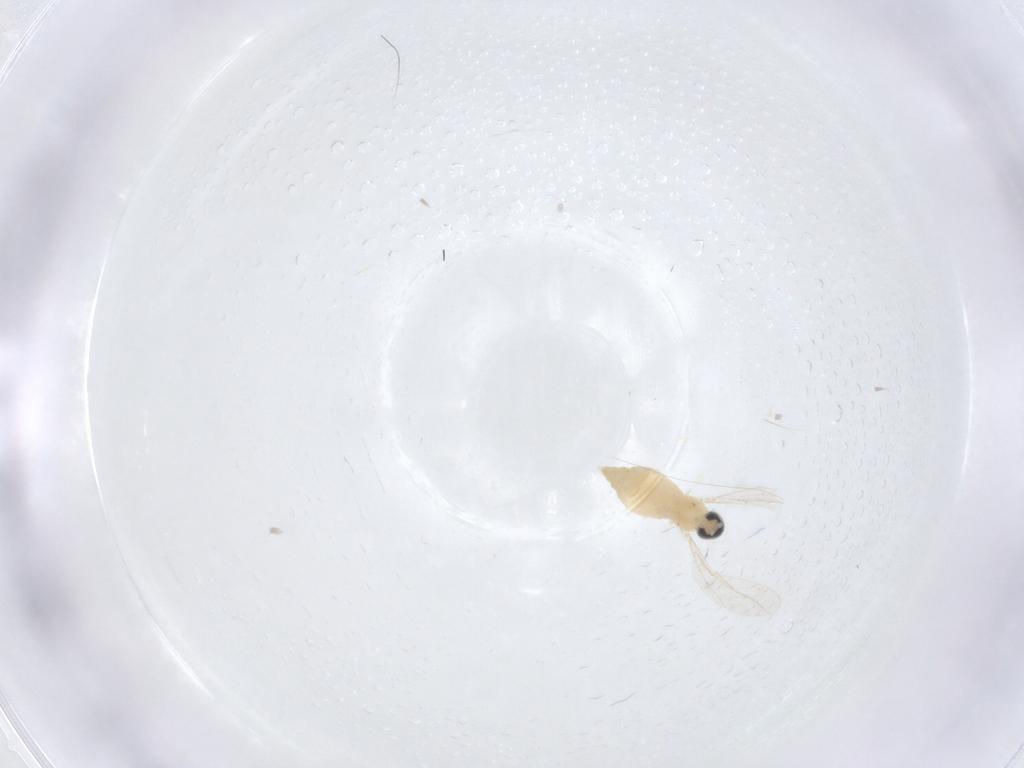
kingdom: Animalia
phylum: Arthropoda
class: Insecta
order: Diptera
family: Cecidomyiidae
